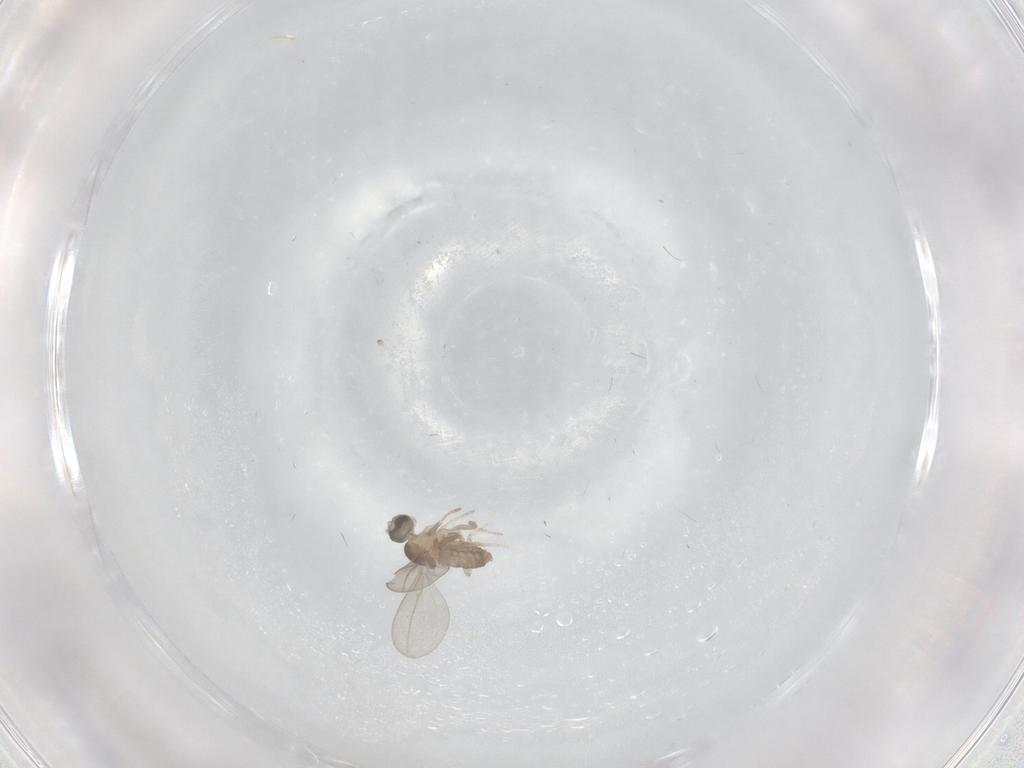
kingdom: Animalia
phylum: Arthropoda
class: Insecta
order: Diptera
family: Cecidomyiidae
